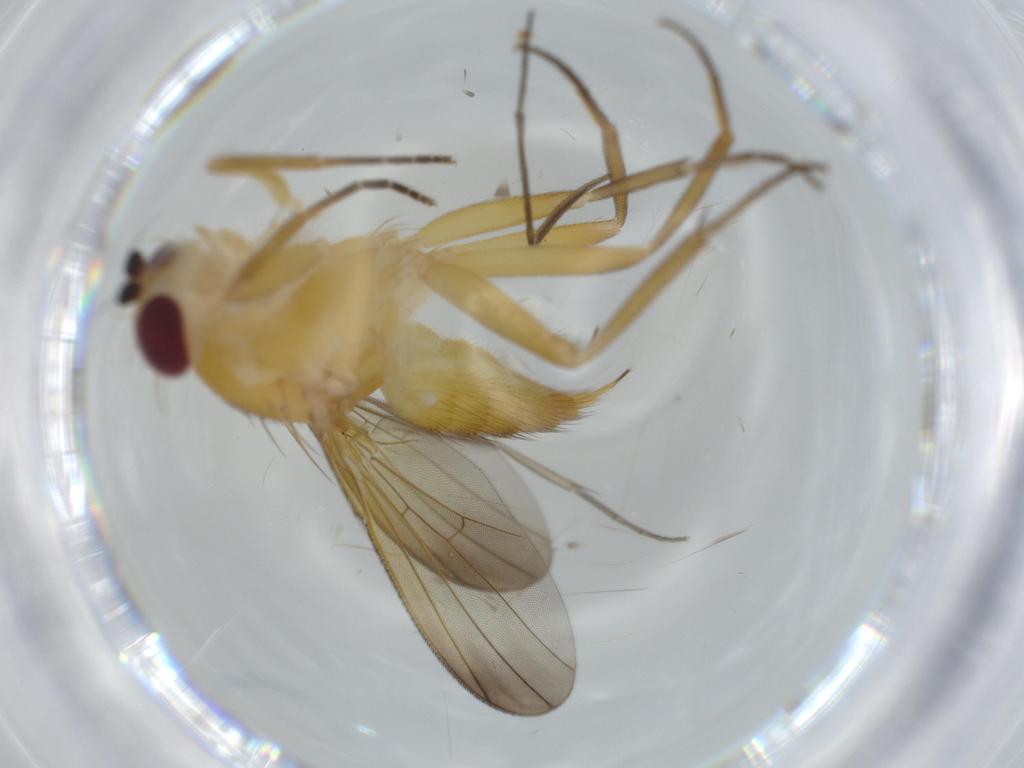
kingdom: Animalia
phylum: Arthropoda
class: Insecta
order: Diptera
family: Clusiidae
